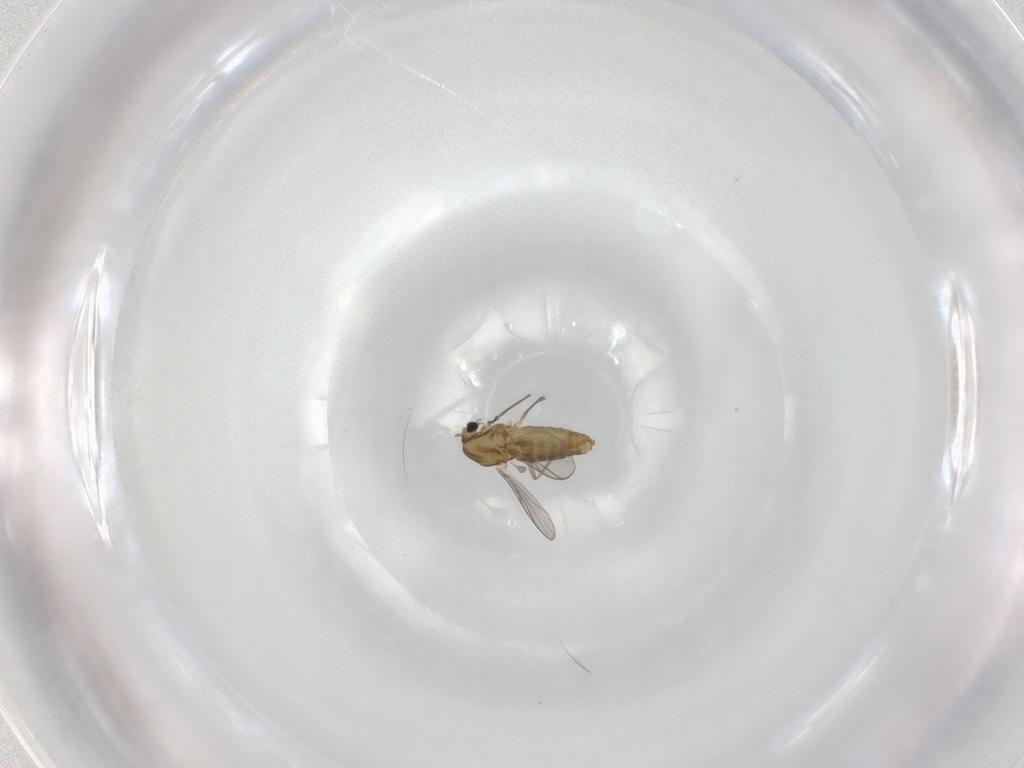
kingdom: Animalia
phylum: Arthropoda
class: Insecta
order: Diptera
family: Chironomidae
